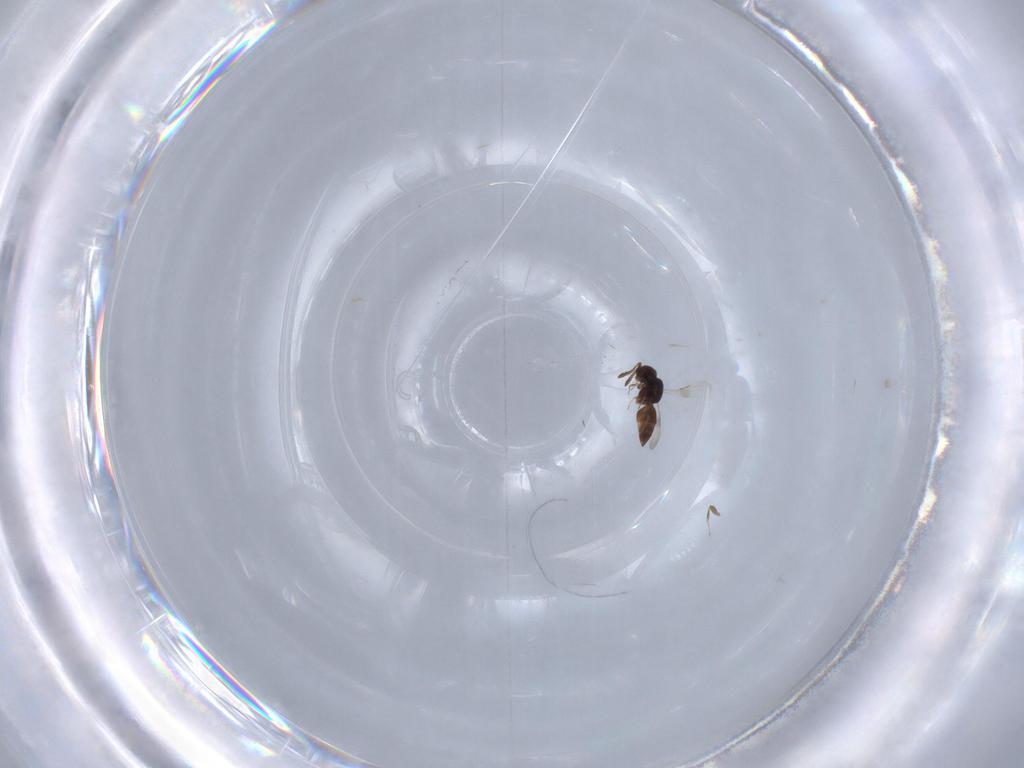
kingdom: Animalia
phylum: Arthropoda
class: Insecta
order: Hymenoptera
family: Ceraphronidae
